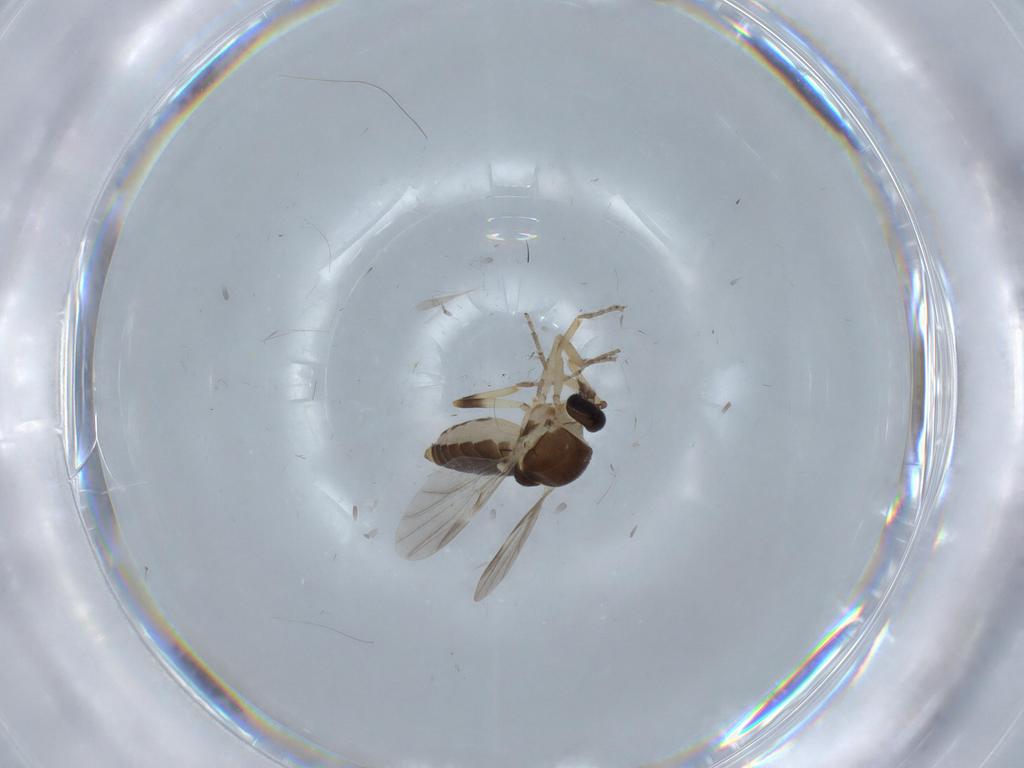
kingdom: Animalia
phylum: Arthropoda
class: Insecta
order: Diptera
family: Ceratopogonidae
